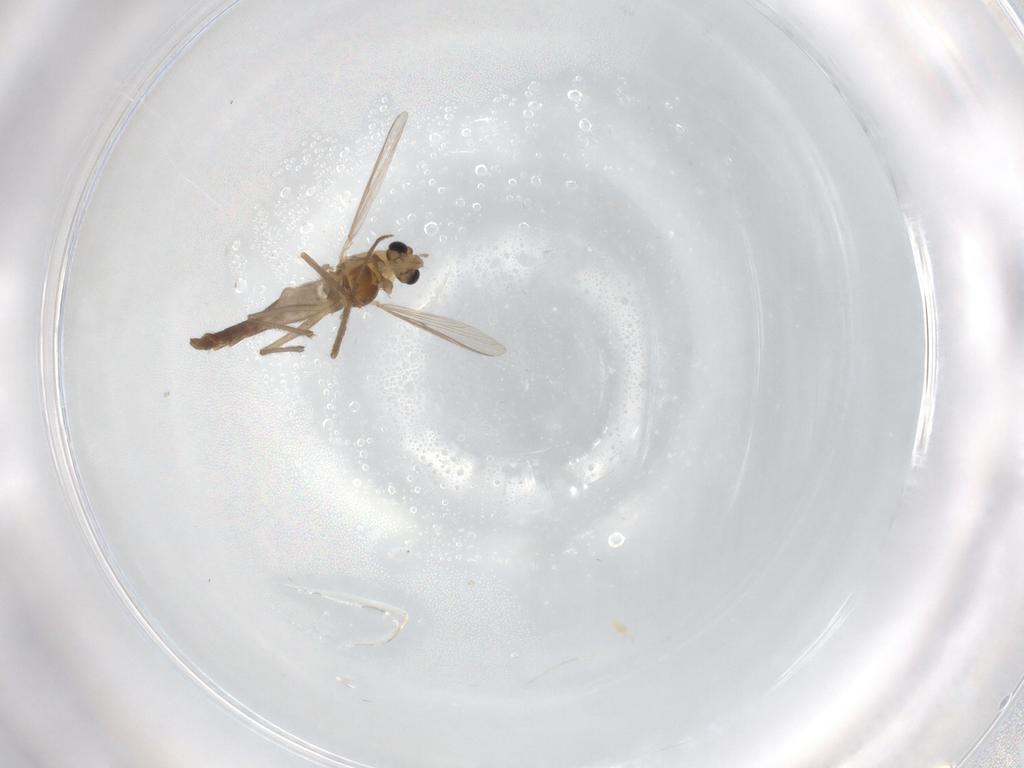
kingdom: Animalia
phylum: Arthropoda
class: Insecta
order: Diptera
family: Chironomidae
